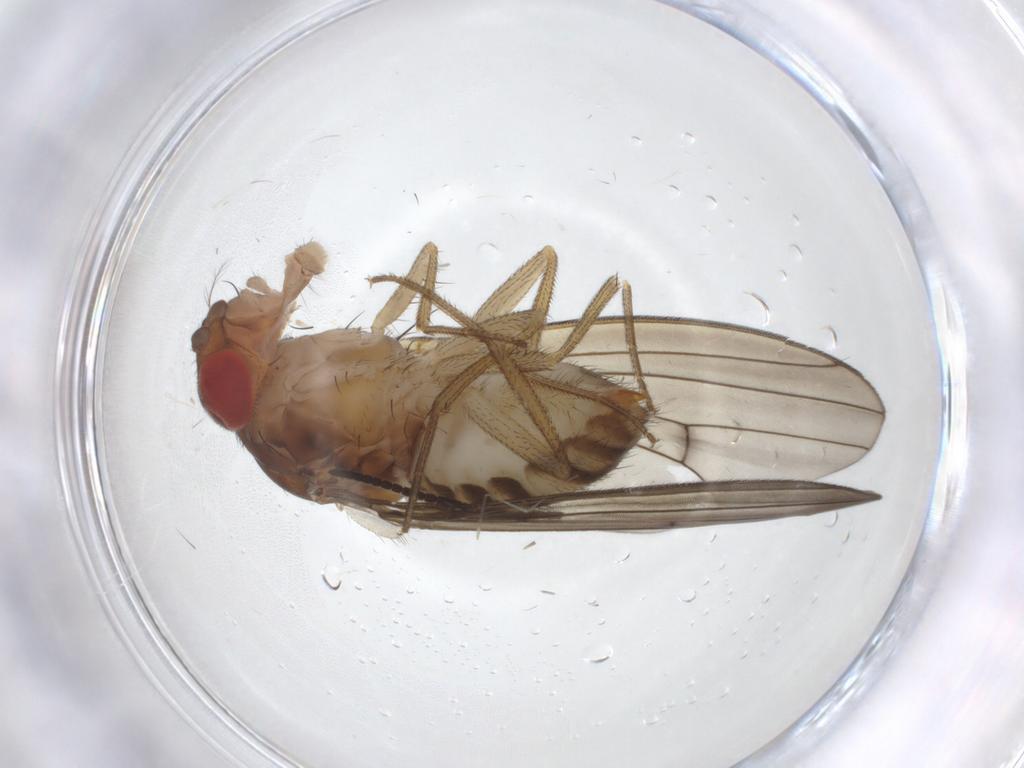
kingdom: Animalia
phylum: Arthropoda
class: Insecta
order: Diptera
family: Drosophilidae
